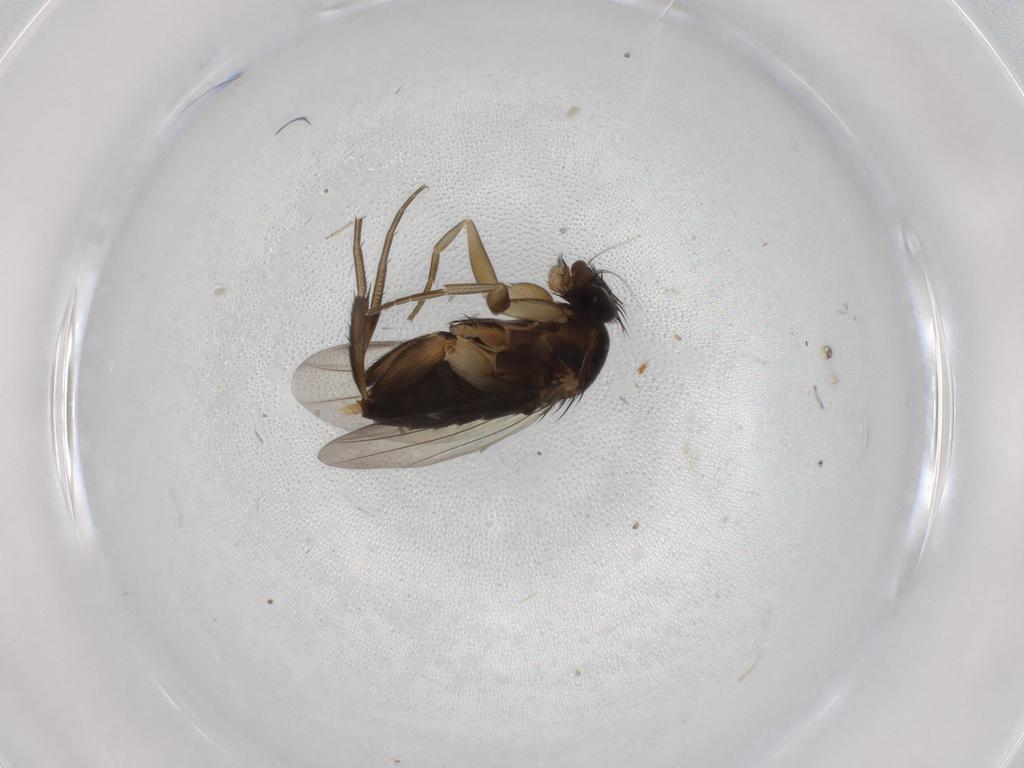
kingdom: Animalia
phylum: Arthropoda
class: Insecta
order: Diptera
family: Phoridae
